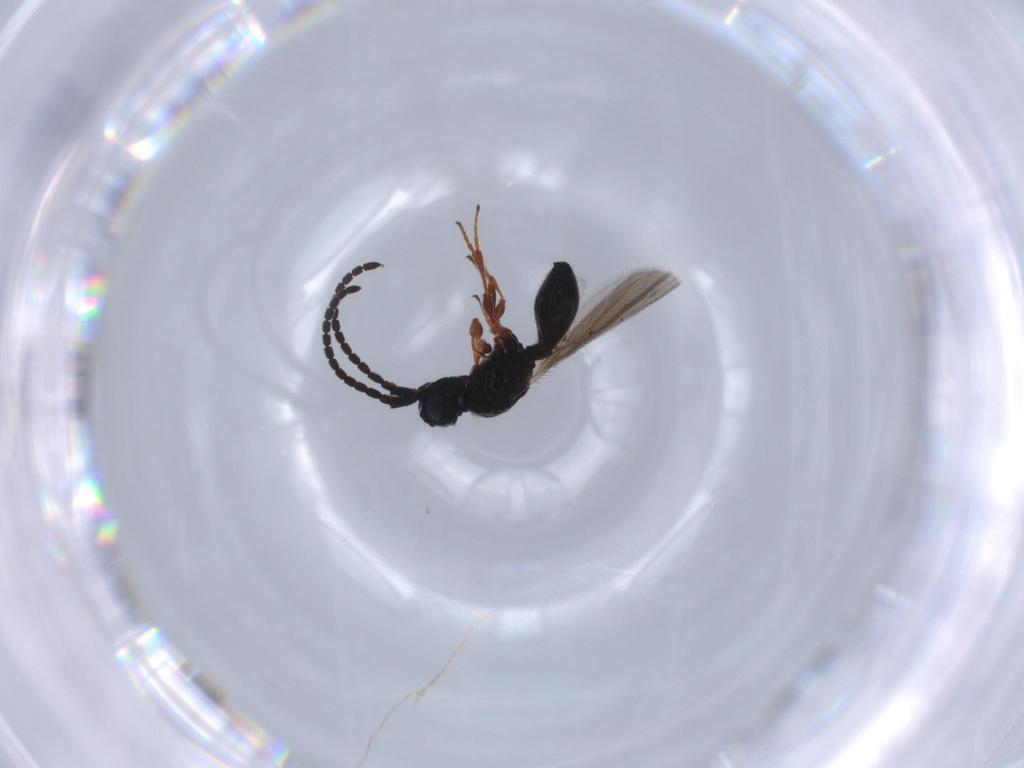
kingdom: Animalia
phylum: Arthropoda
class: Insecta
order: Hymenoptera
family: Diapriidae
